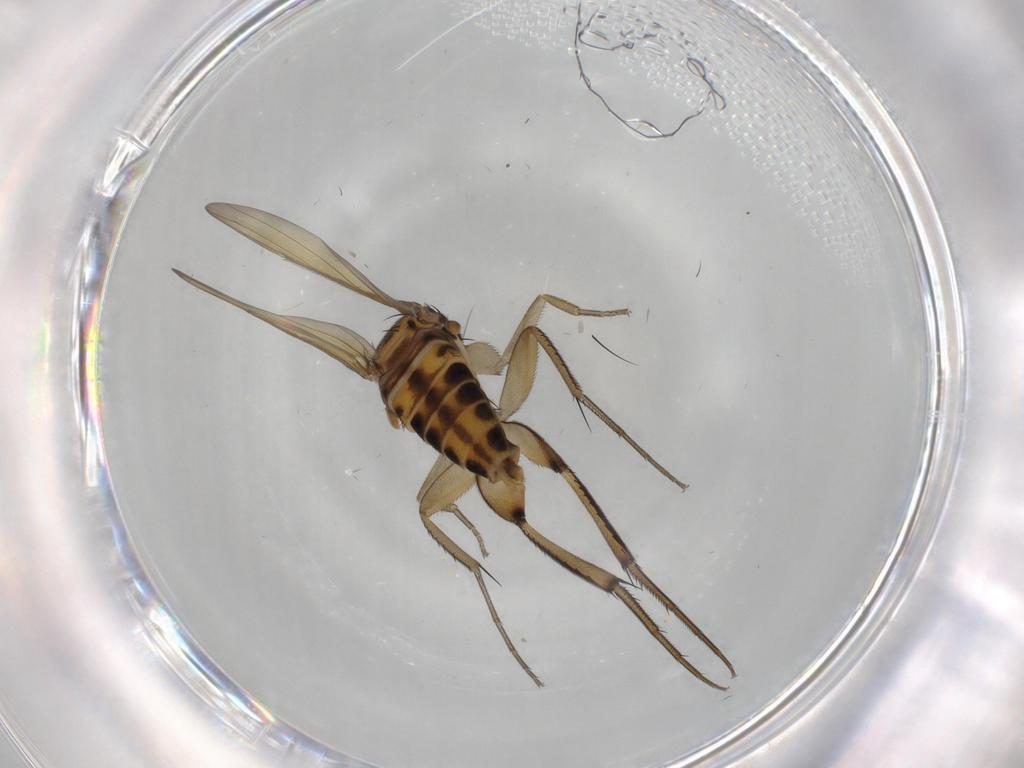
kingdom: Animalia
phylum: Arthropoda
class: Insecta
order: Diptera
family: Phoridae
